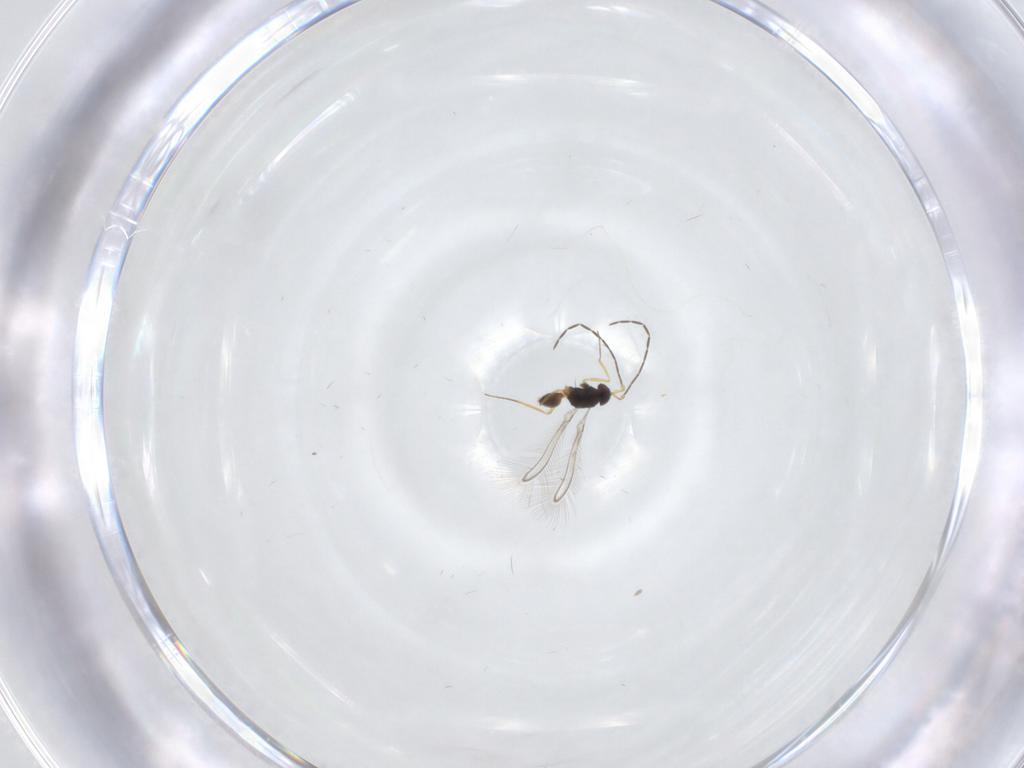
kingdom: Animalia
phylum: Arthropoda
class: Insecta
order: Hymenoptera
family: Mymaridae
